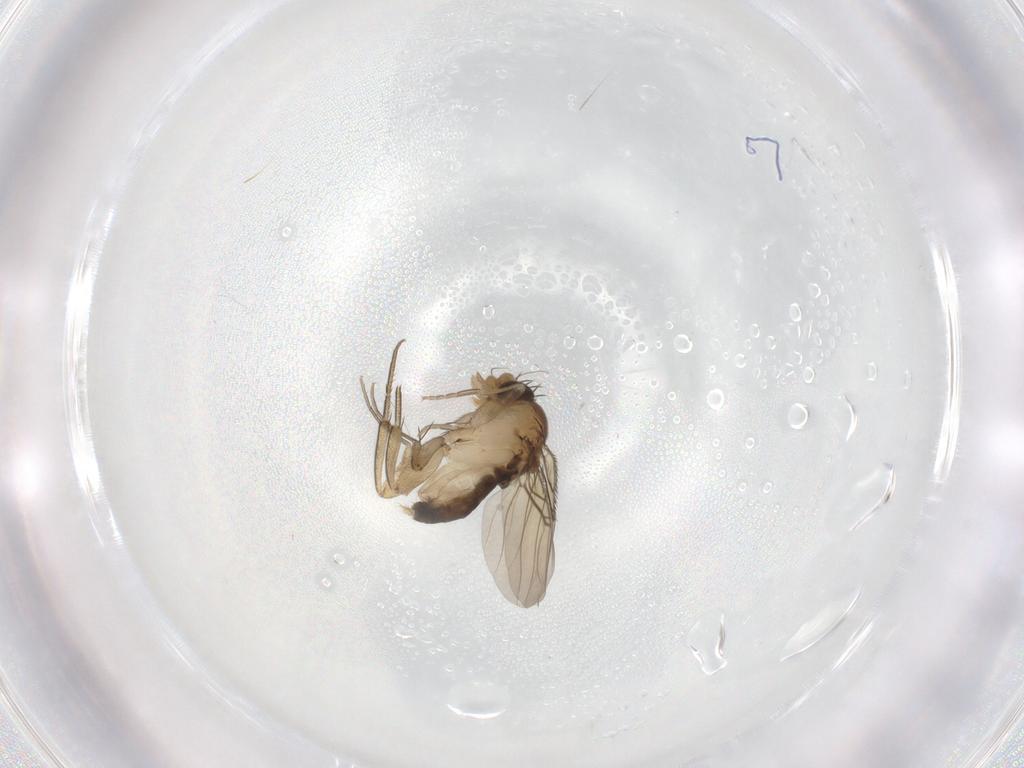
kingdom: Animalia
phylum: Arthropoda
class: Insecta
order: Diptera
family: Phoridae
